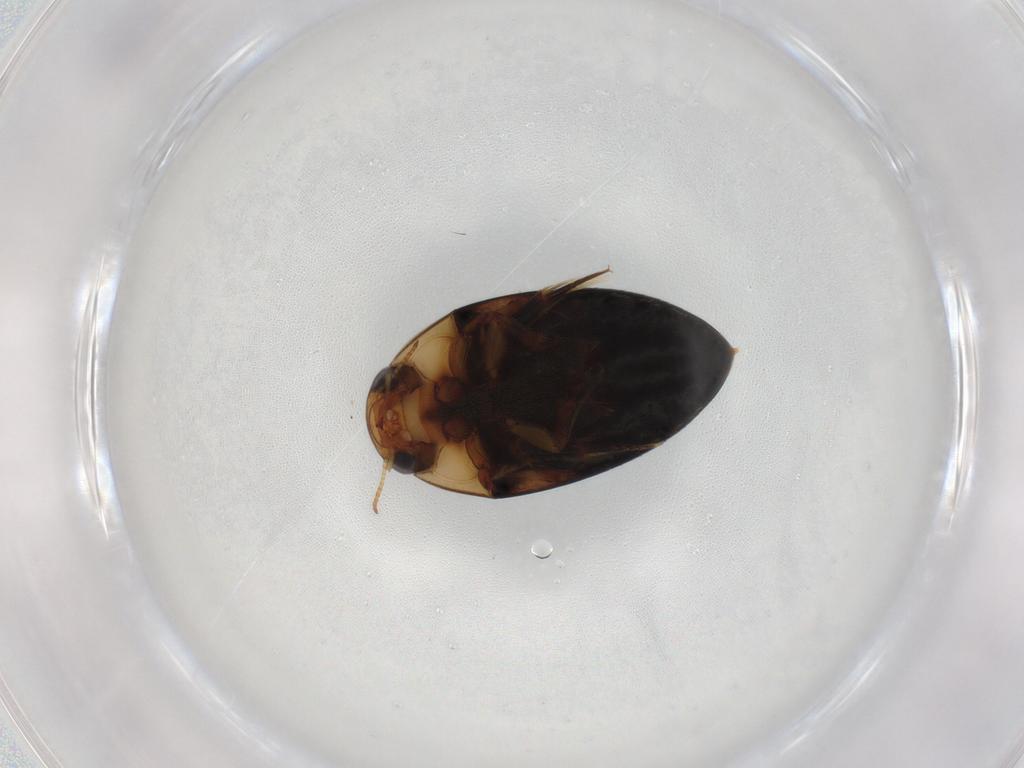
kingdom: Animalia
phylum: Arthropoda
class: Insecta
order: Coleoptera
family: Noteridae
